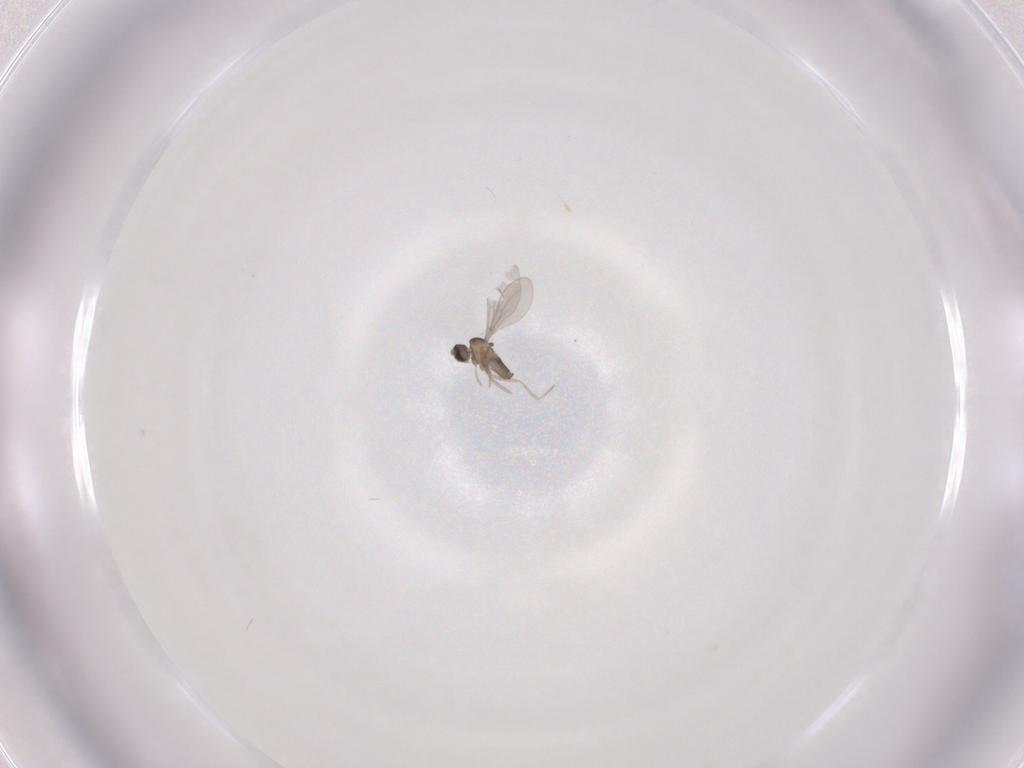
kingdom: Animalia
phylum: Arthropoda
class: Insecta
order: Diptera
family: Cecidomyiidae
